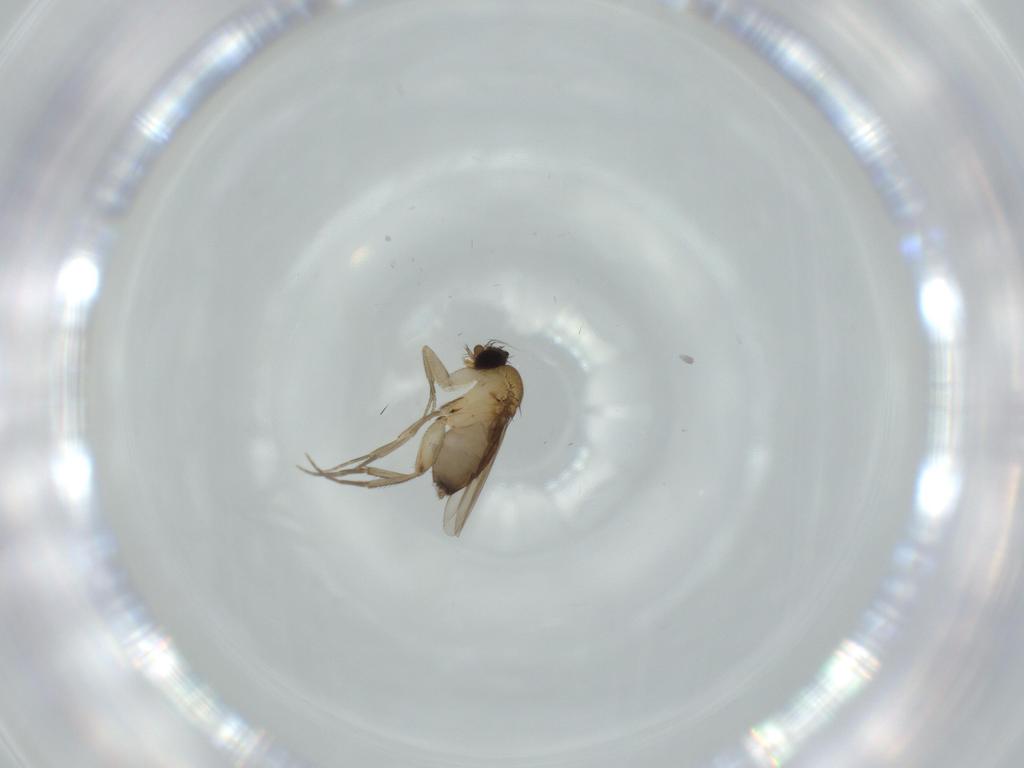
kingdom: Animalia
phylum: Arthropoda
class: Insecta
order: Diptera
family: Phoridae
